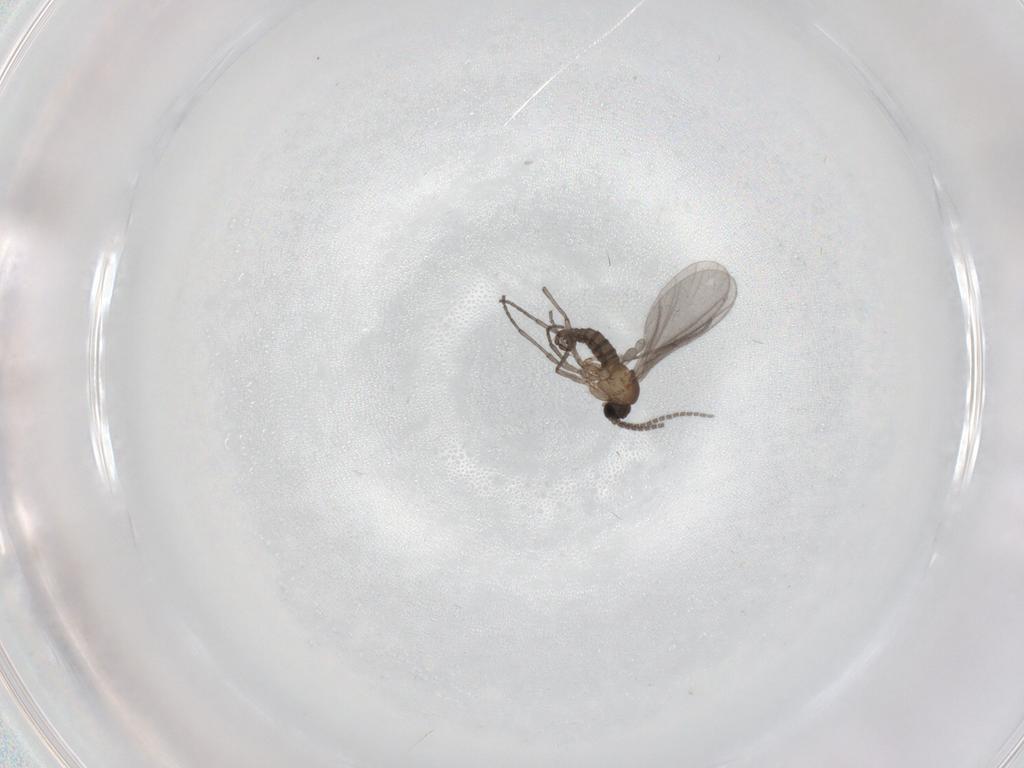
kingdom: Animalia
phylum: Arthropoda
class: Insecta
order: Diptera
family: Sciaridae
